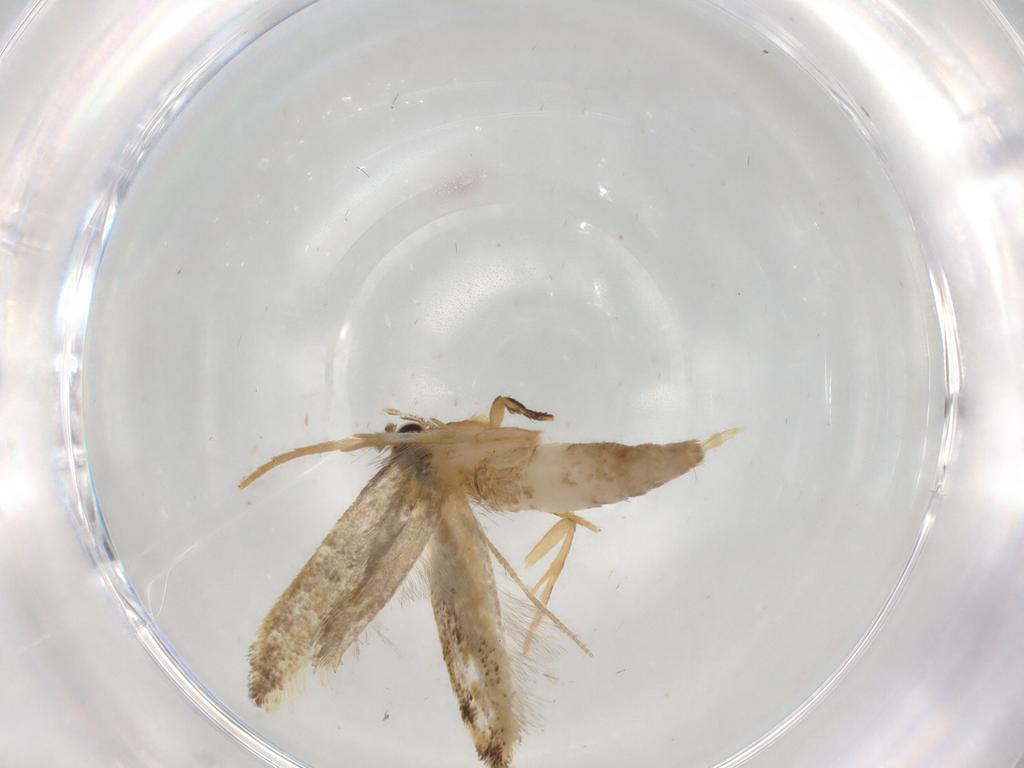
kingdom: Animalia
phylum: Arthropoda
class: Insecta
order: Lepidoptera
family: Tineidae
